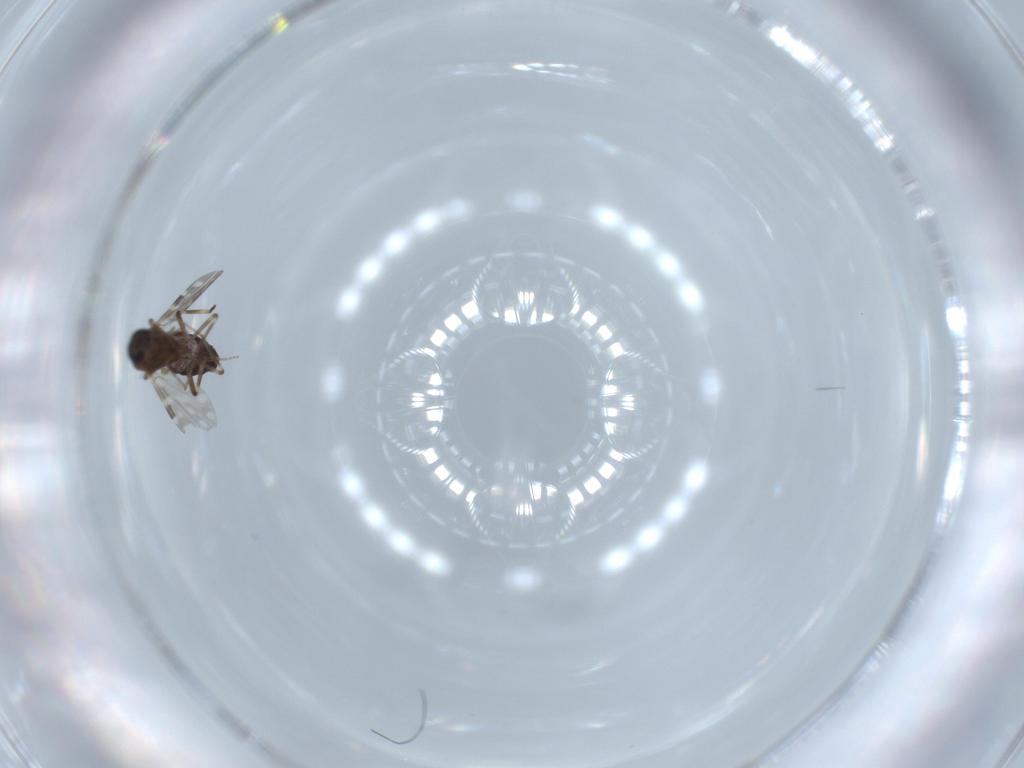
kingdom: Animalia
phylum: Arthropoda
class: Insecta
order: Diptera
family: Ceratopogonidae
